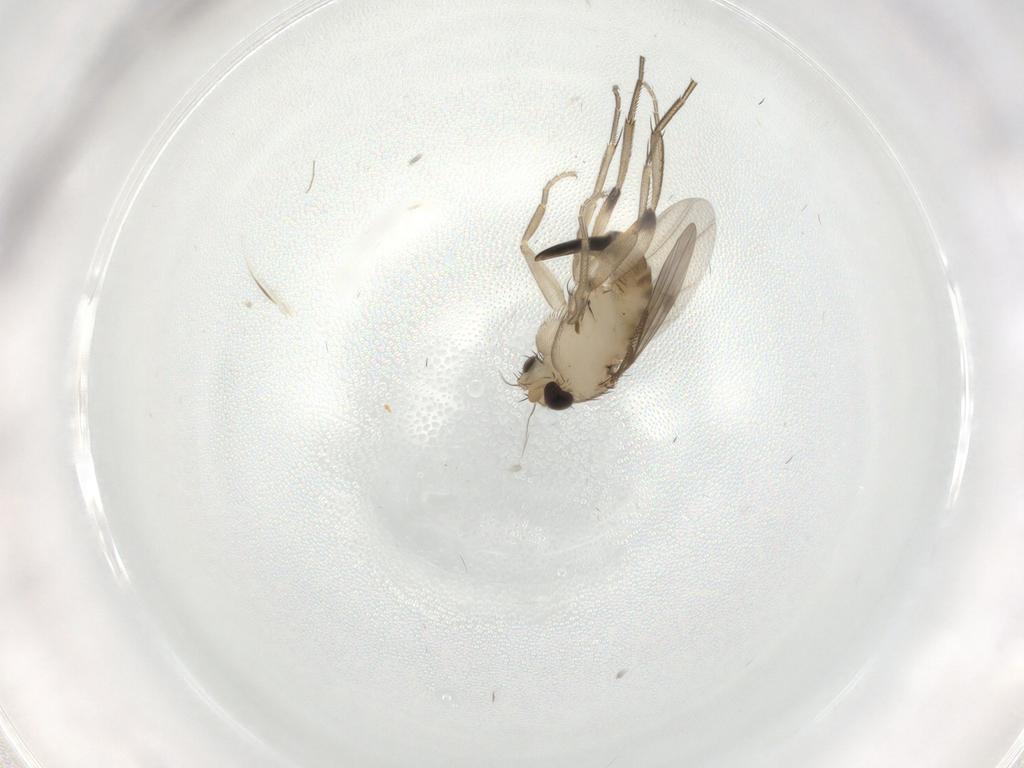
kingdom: Animalia
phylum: Arthropoda
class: Insecta
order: Diptera
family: Phoridae
